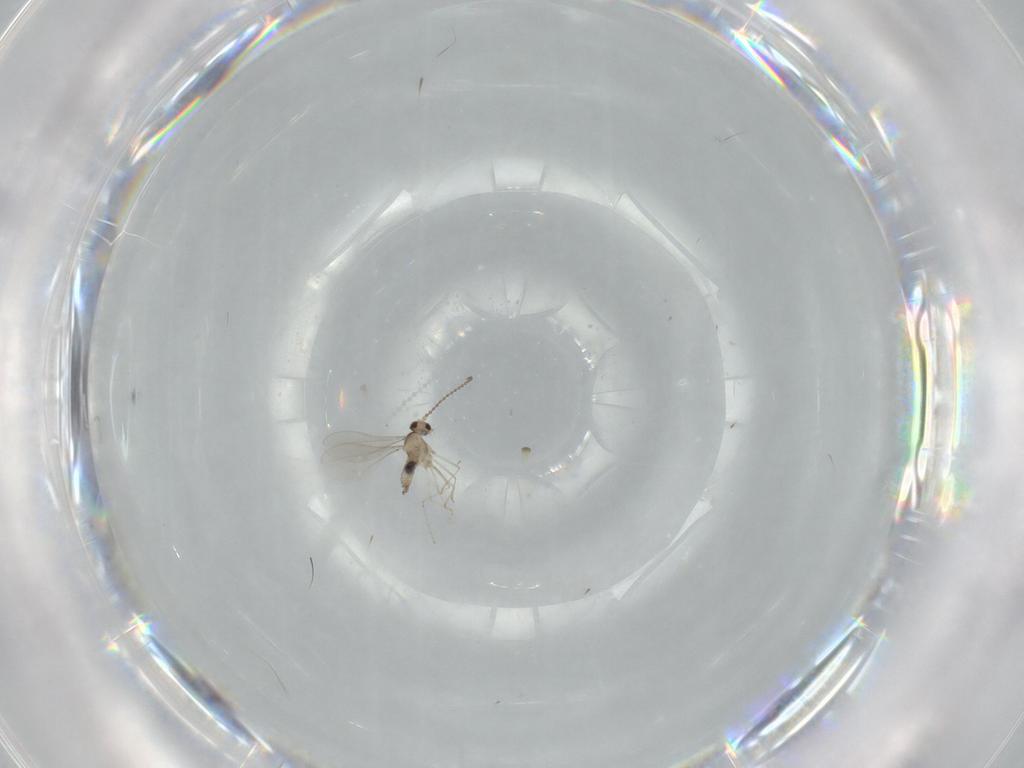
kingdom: Animalia
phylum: Arthropoda
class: Insecta
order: Diptera
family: Cecidomyiidae
